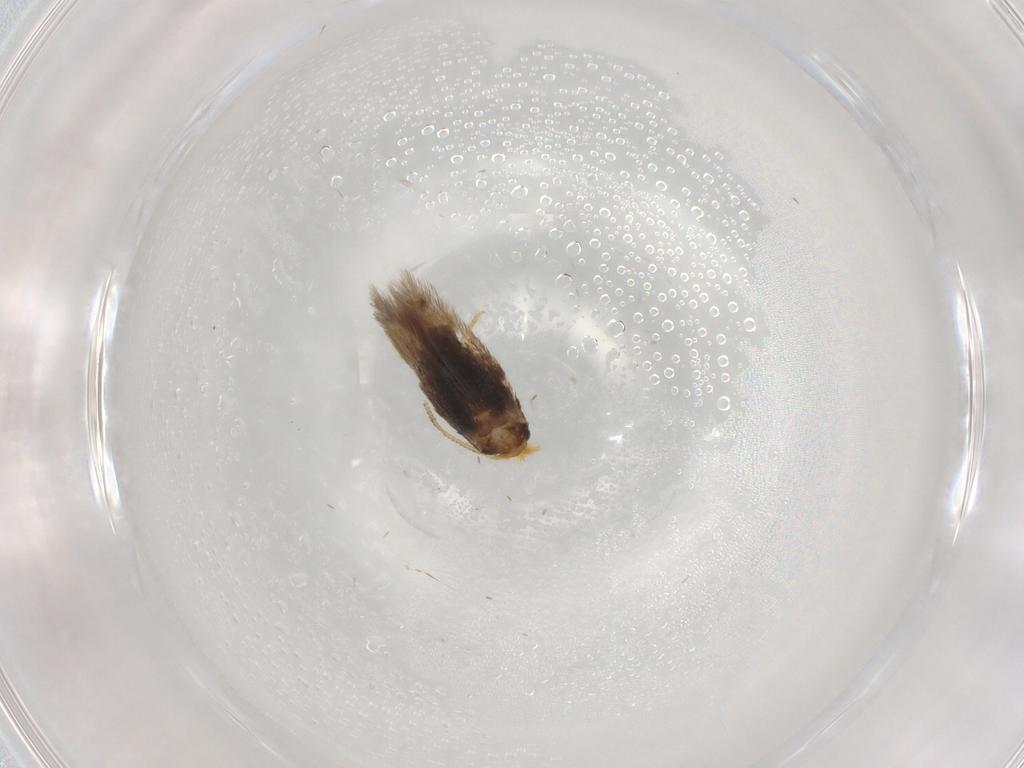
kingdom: Animalia
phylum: Arthropoda
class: Insecta
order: Lepidoptera
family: Nepticulidae
